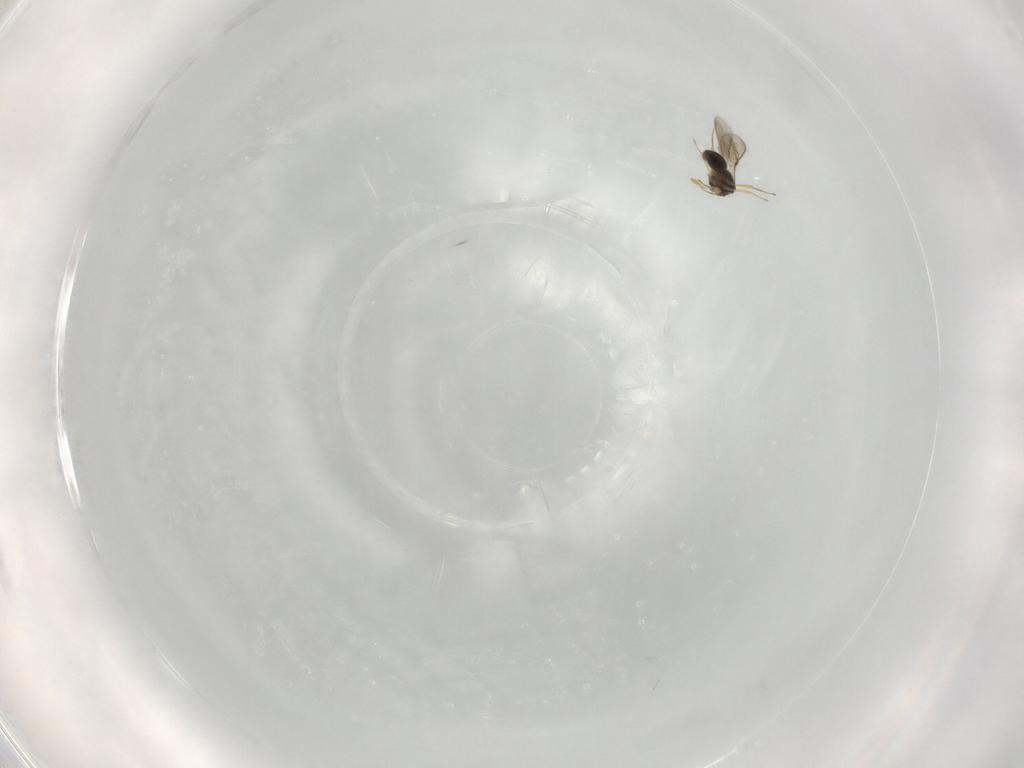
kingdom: Animalia
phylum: Arthropoda
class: Insecta
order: Hymenoptera
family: Scelionidae
